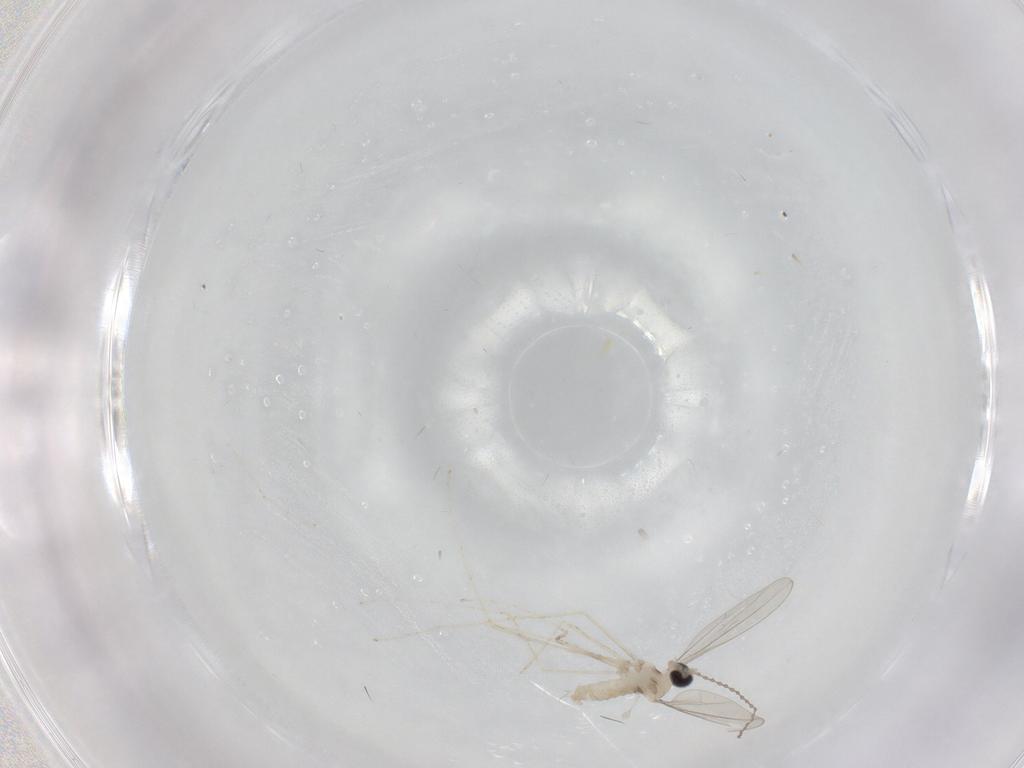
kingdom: Animalia
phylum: Arthropoda
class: Insecta
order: Diptera
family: Cecidomyiidae
